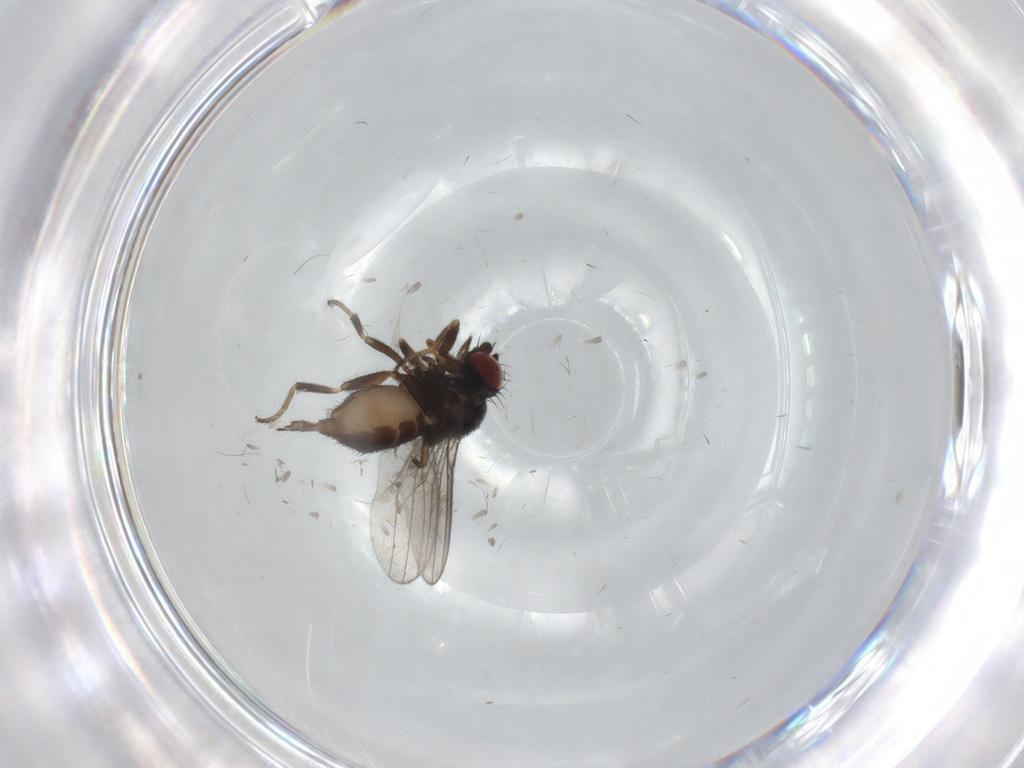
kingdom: Animalia
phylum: Arthropoda
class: Insecta
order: Diptera
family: Milichiidae
